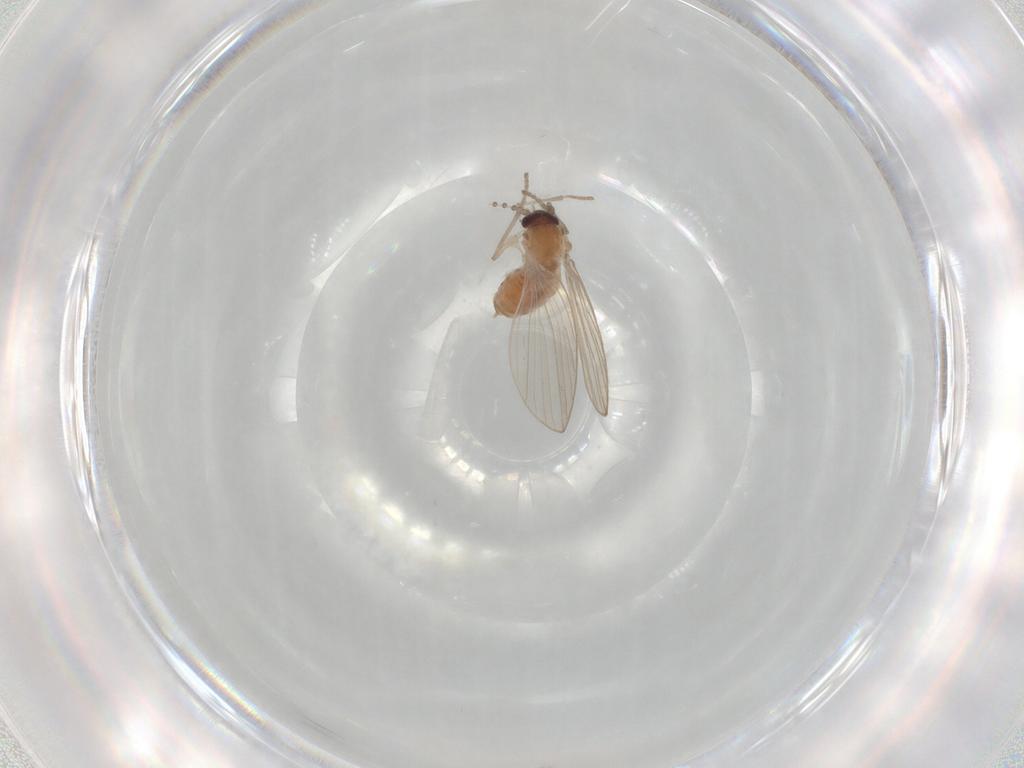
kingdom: Animalia
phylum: Arthropoda
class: Insecta
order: Diptera
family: Psychodidae
